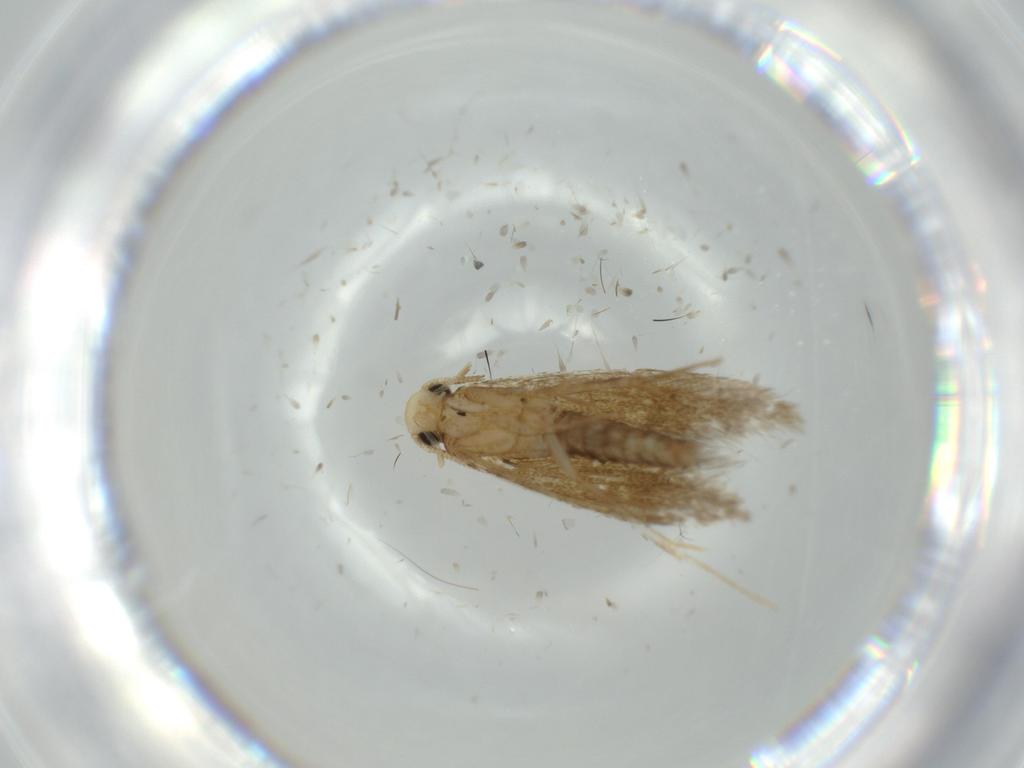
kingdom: Animalia
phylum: Arthropoda
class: Insecta
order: Lepidoptera
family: Tineidae
